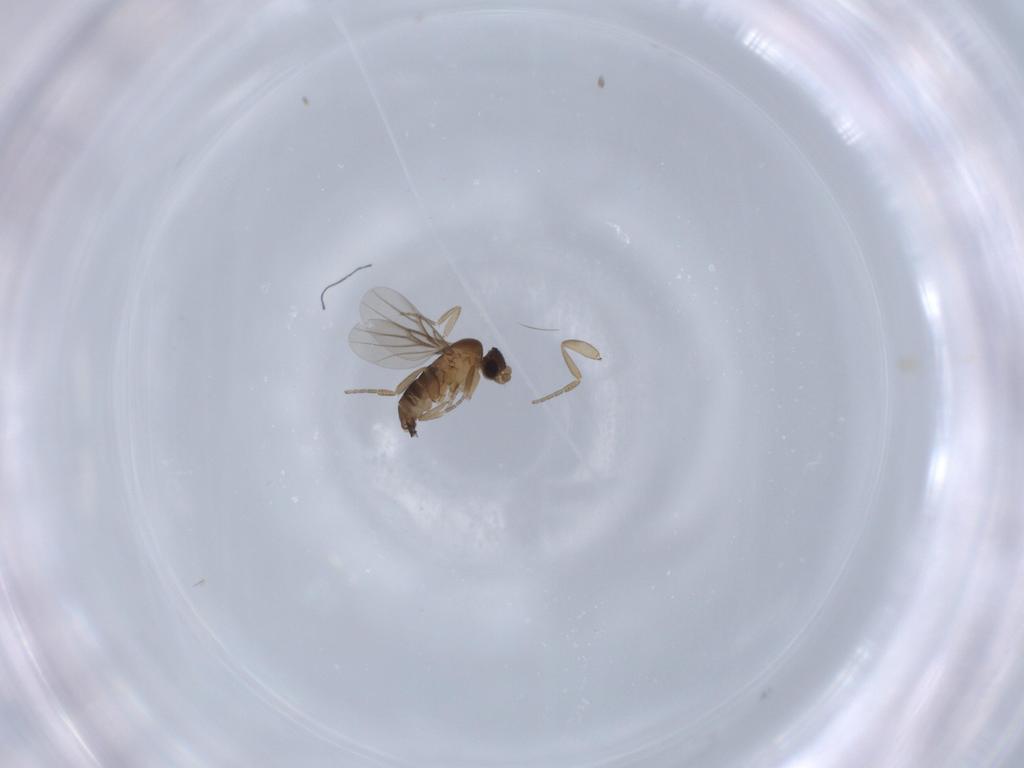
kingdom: Animalia
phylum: Arthropoda
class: Insecta
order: Diptera
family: Phoridae
